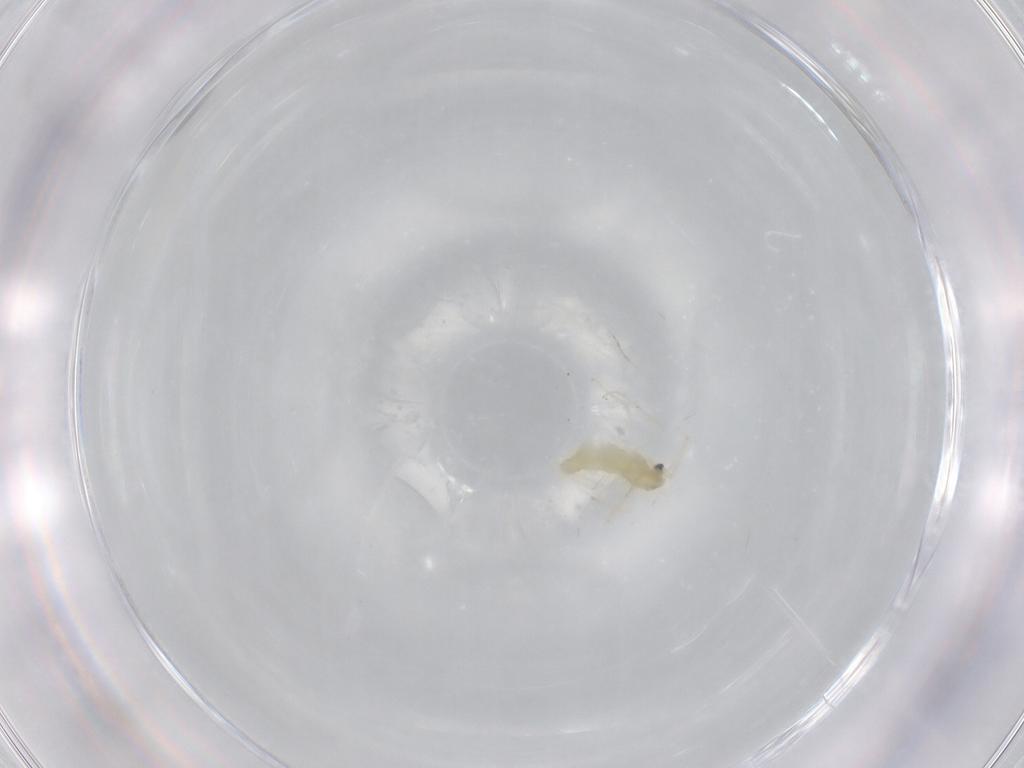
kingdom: Animalia
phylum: Arthropoda
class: Insecta
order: Diptera
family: Chironomidae
